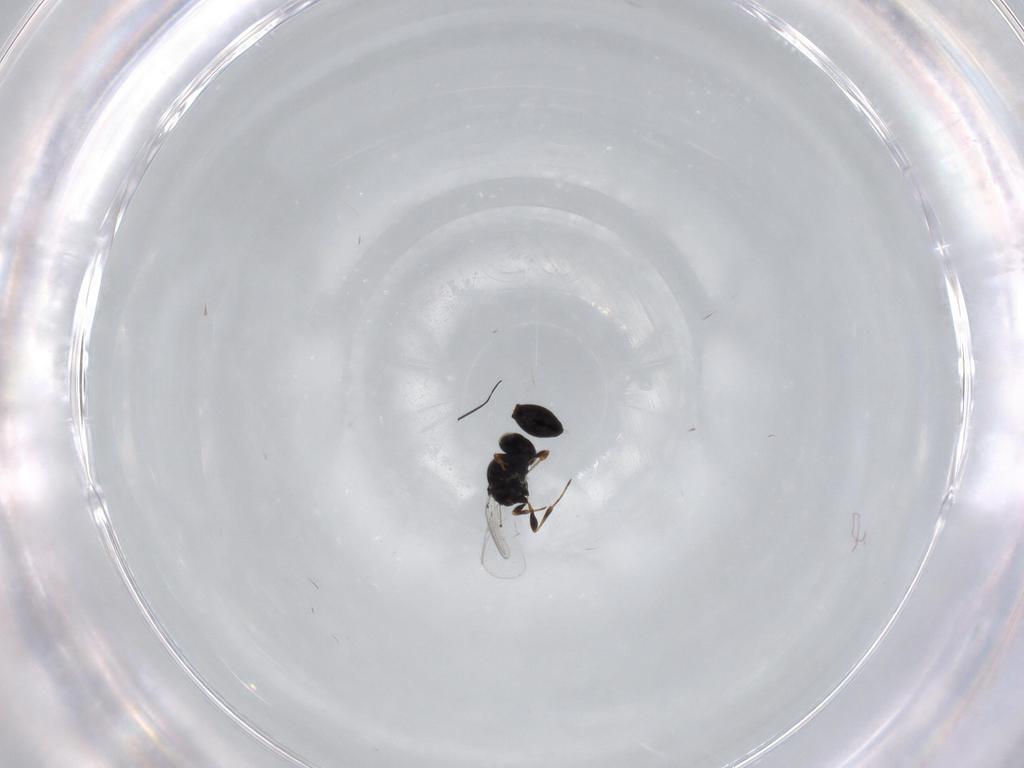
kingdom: Animalia
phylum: Arthropoda
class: Insecta
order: Hymenoptera
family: Platygastridae
